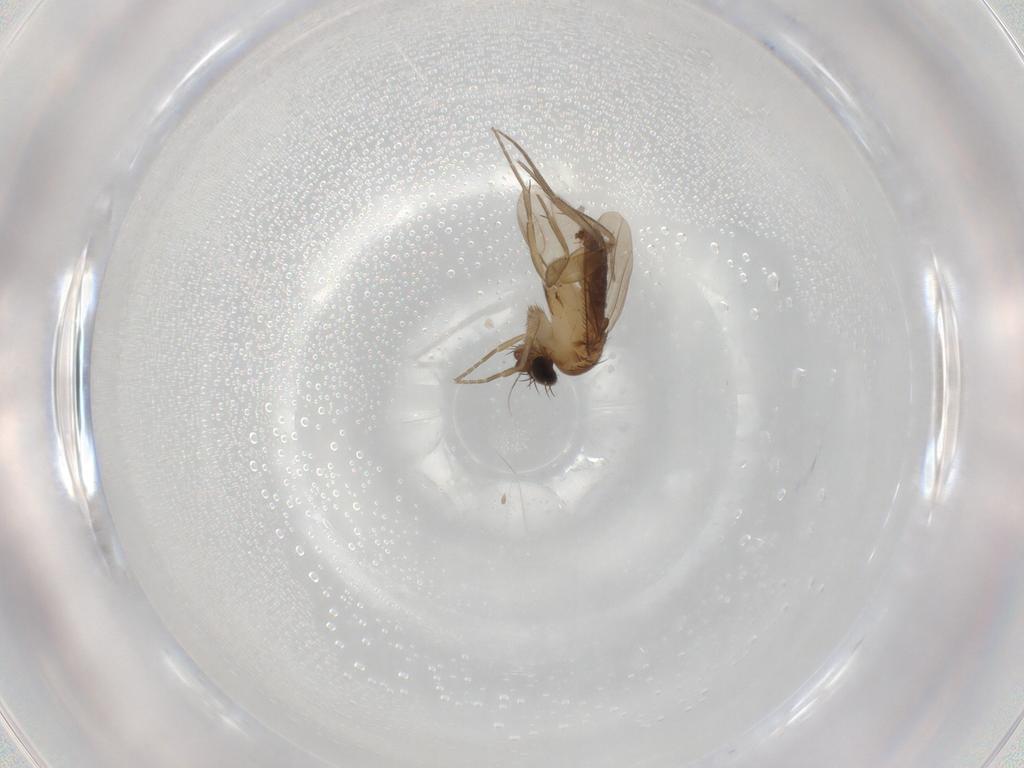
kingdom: Animalia
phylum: Arthropoda
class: Insecta
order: Diptera
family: Phoridae
